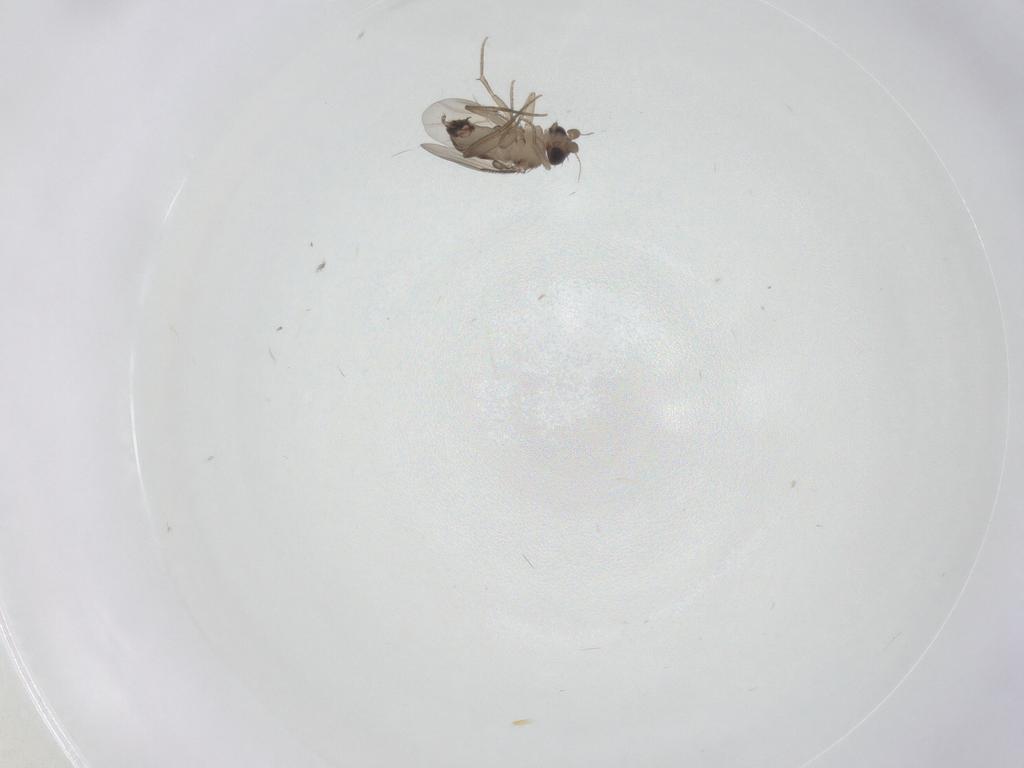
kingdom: Animalia
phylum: Arthropoda
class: Insecta
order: Diptera
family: Phoridae
